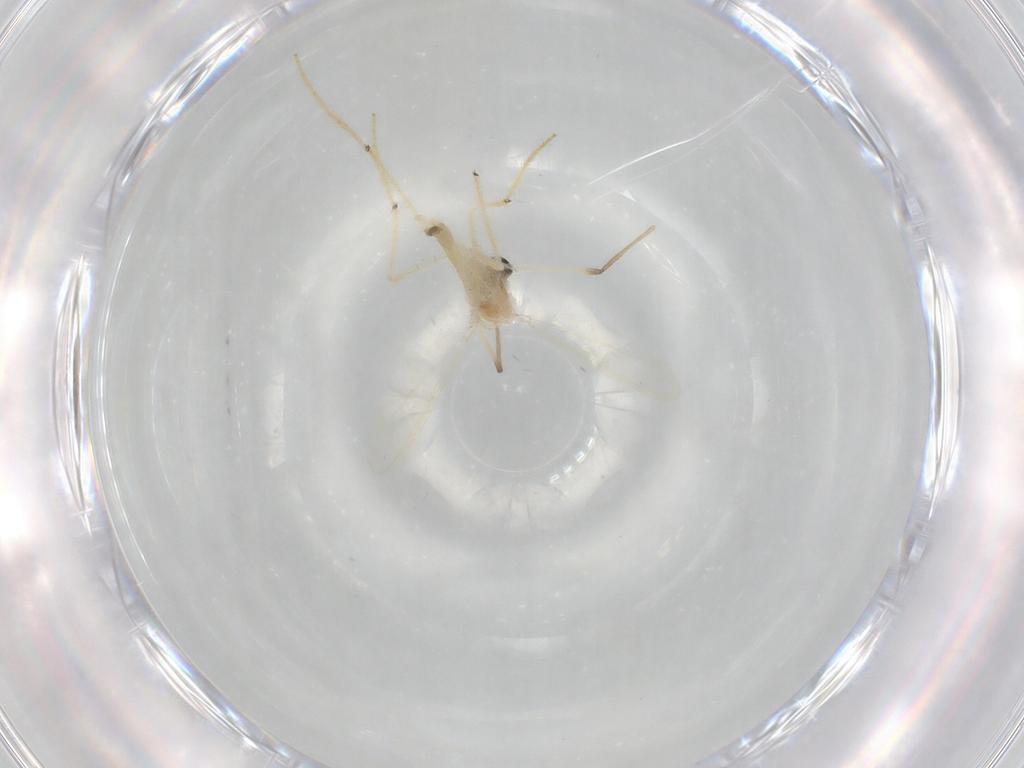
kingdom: Animalia
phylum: Arthropoda
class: Insecta
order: Diptera
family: Chironomidae
